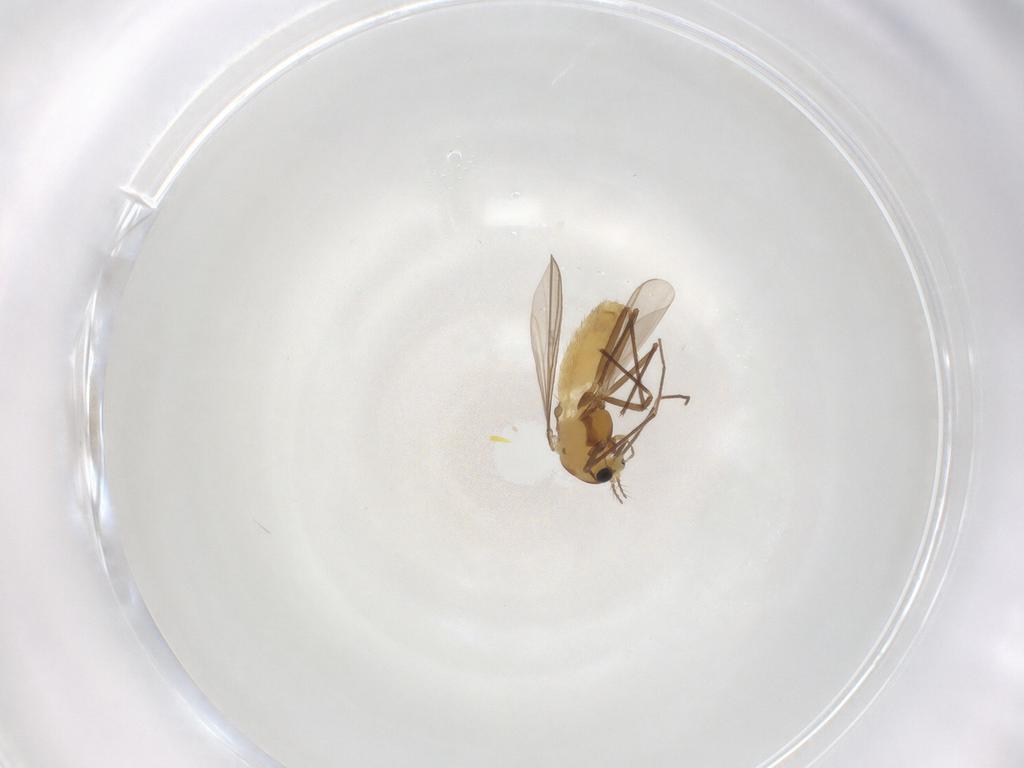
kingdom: Animalia
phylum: Arthropoda
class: Insecta
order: Diptera
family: Chironomidae
